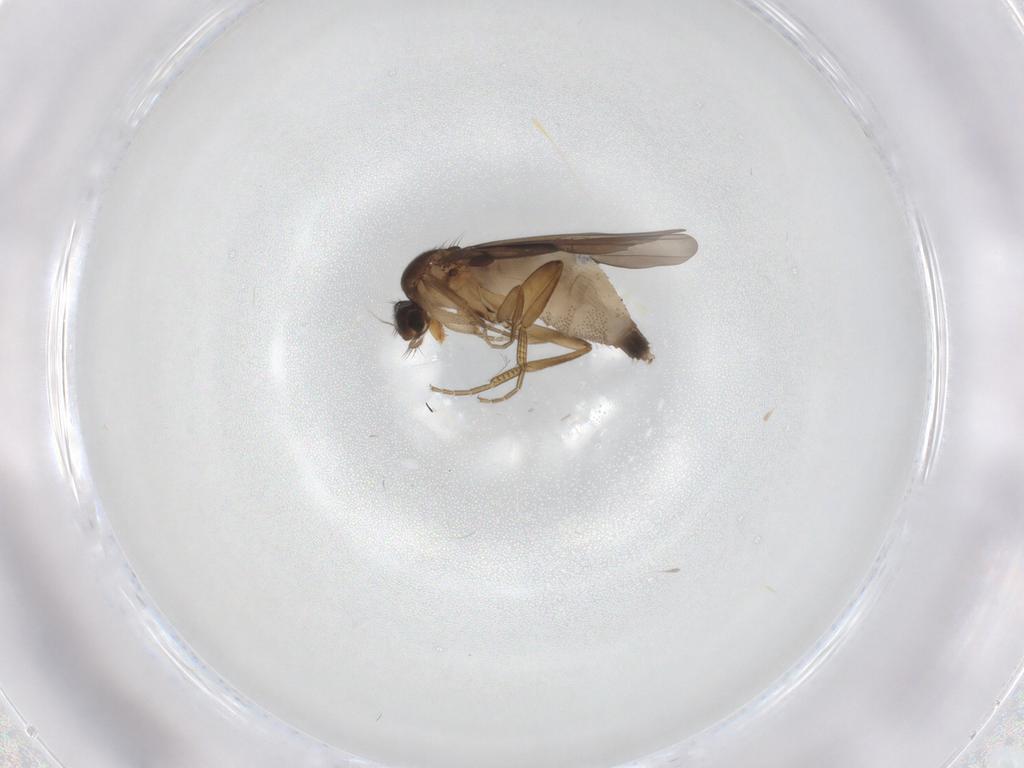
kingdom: Animalia
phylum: Arthropoda
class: Insecta
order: Diptera
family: Phoridae
